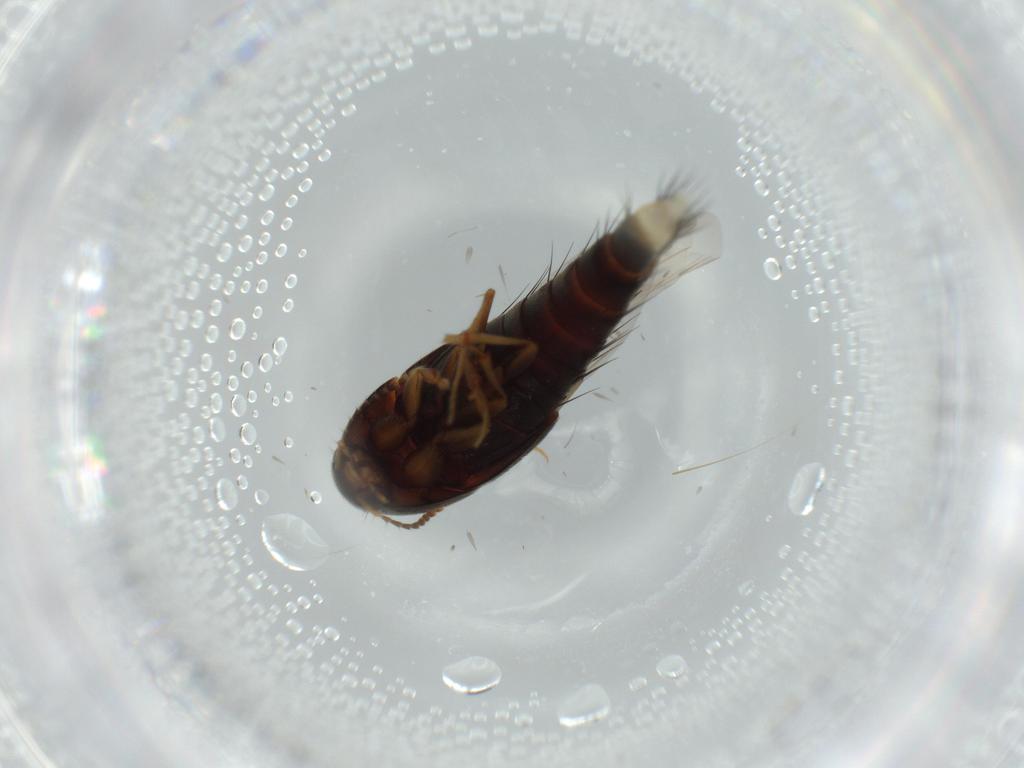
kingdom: Animalia
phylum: Arthropoda
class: Insecta
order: Coleoptera
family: Staphylinidae
